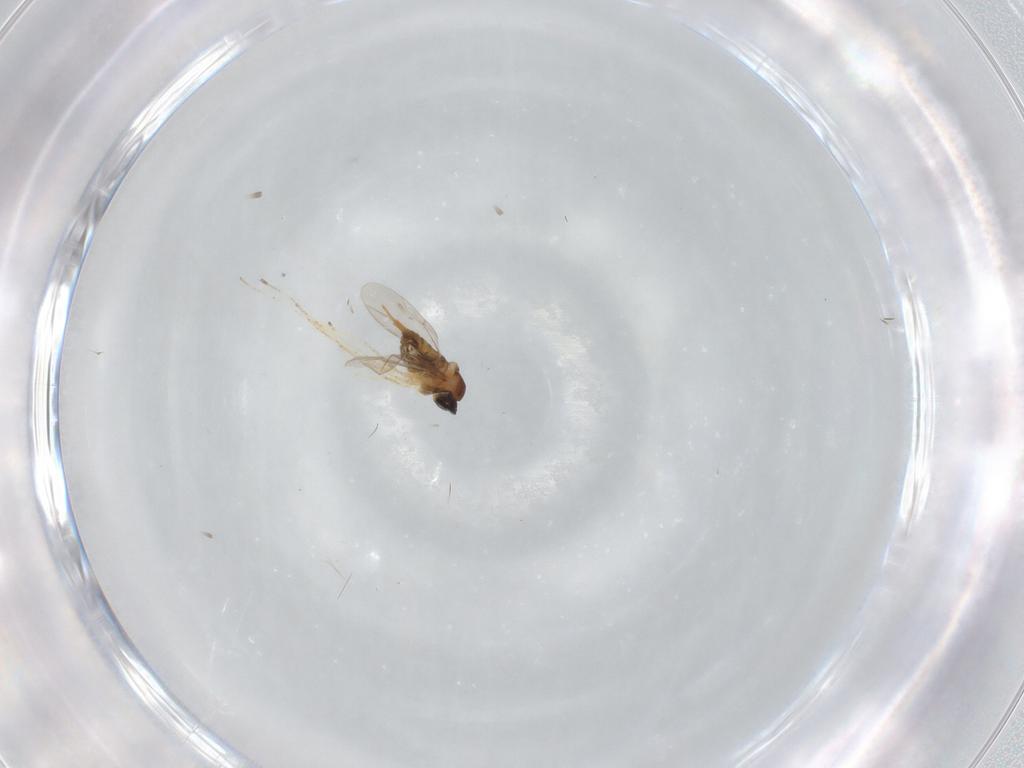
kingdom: Animalia
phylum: Arthropoda
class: Insecta
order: Diptera
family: Cecidomyiidae
